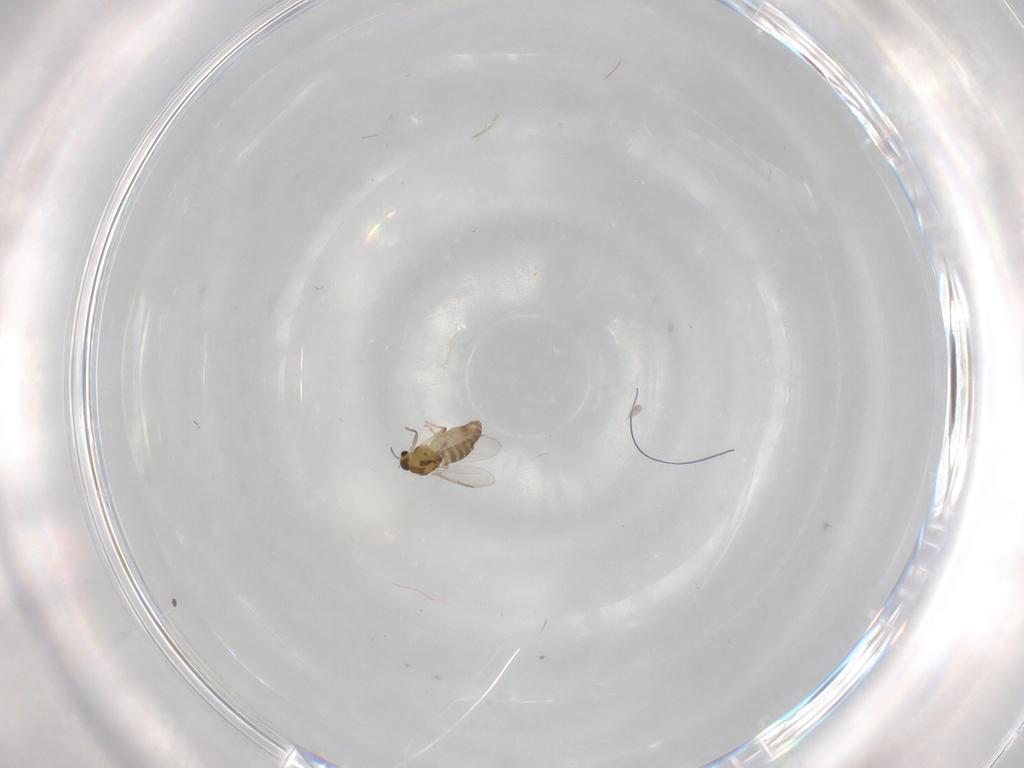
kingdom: Animalia
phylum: Arthropoda
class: Insecta
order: Diptera
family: Chironomidae
